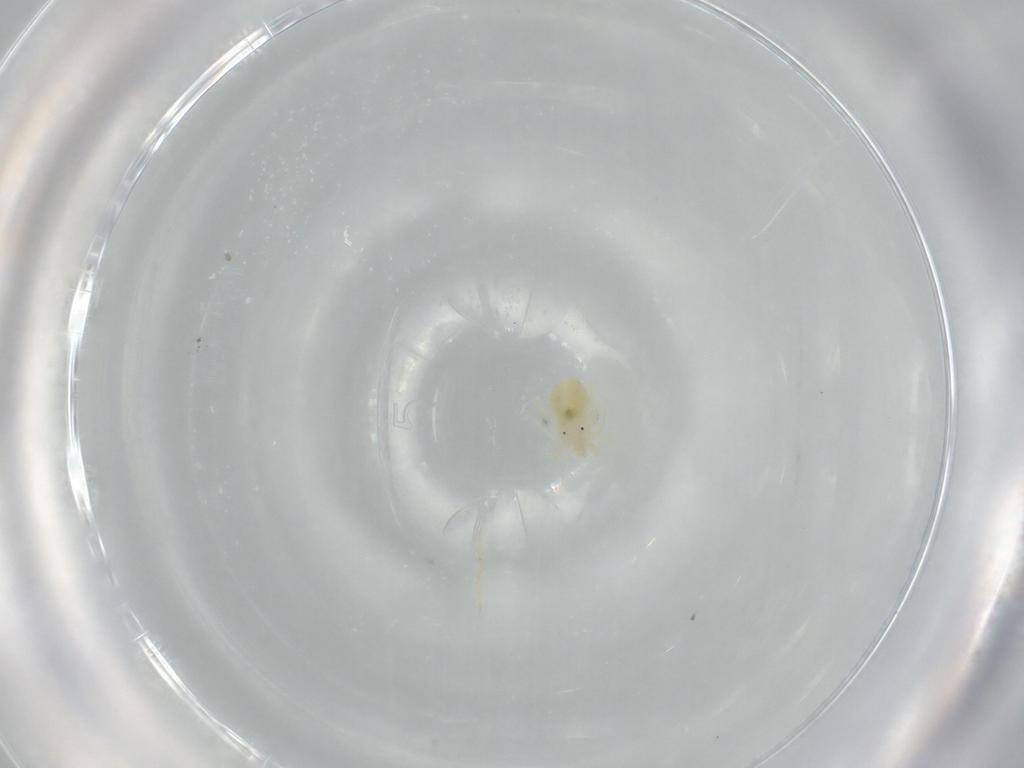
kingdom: Animalia
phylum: Arthropoda
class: Arachnida
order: Trombidiformes
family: Anystidae
